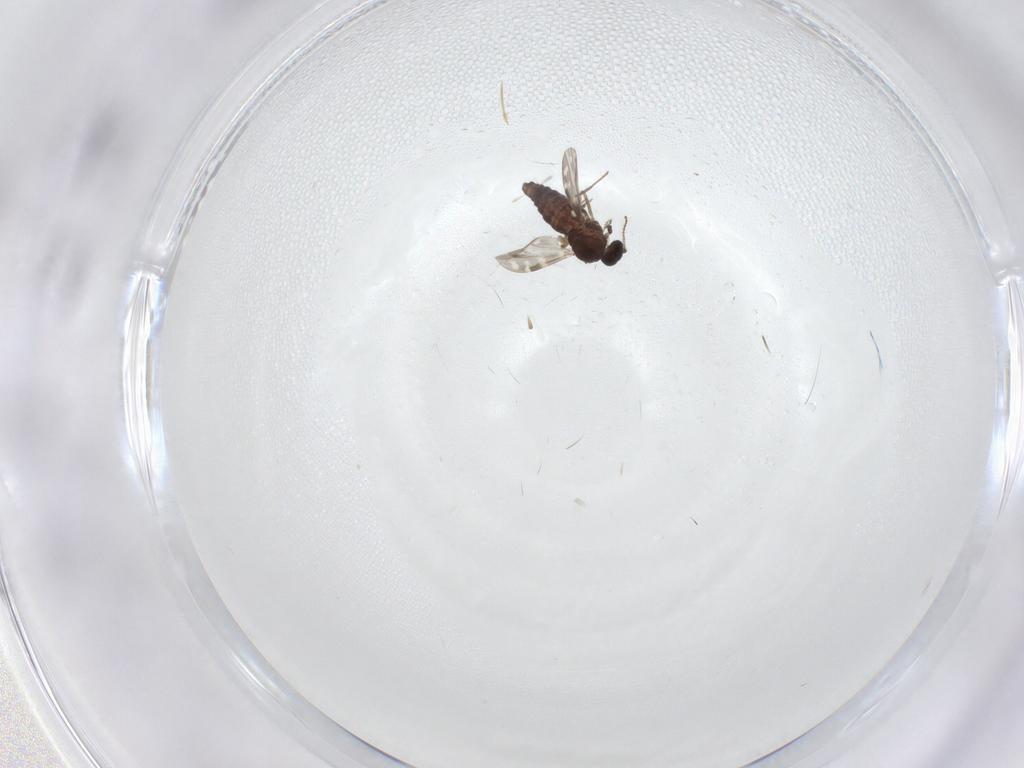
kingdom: Animalia
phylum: Arthropoda
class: Insecta
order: Diptera
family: Ceratopogonidae
